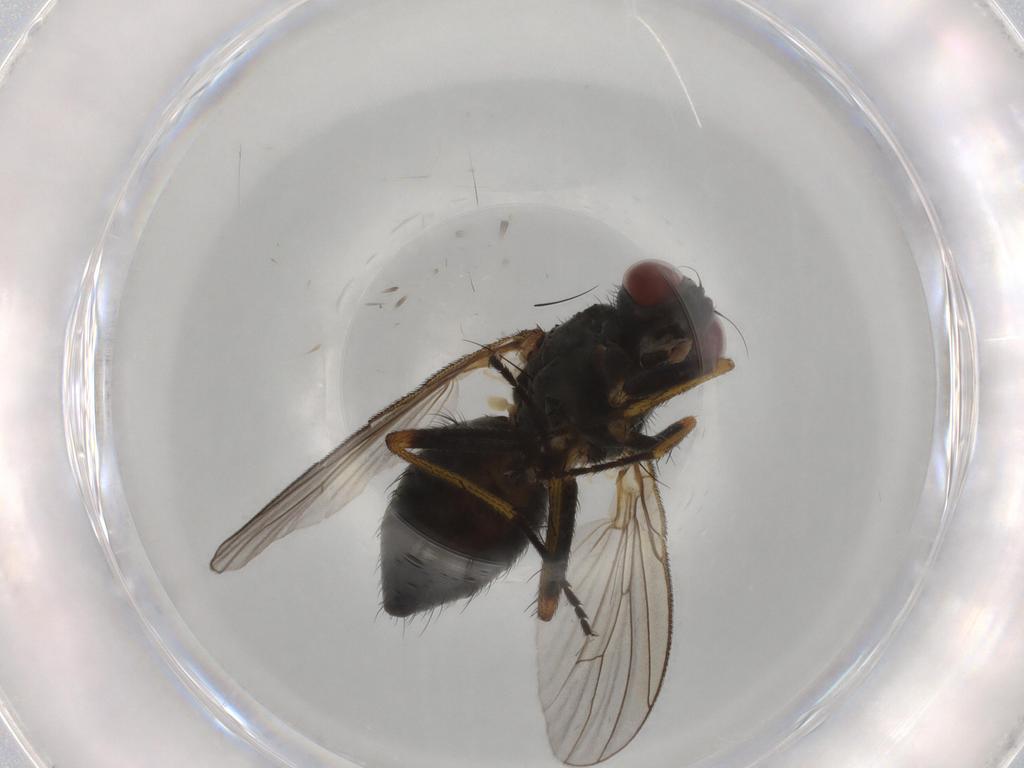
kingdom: Animalia
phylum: Arthropoda
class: Insecta
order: Diptera
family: Muscidae
